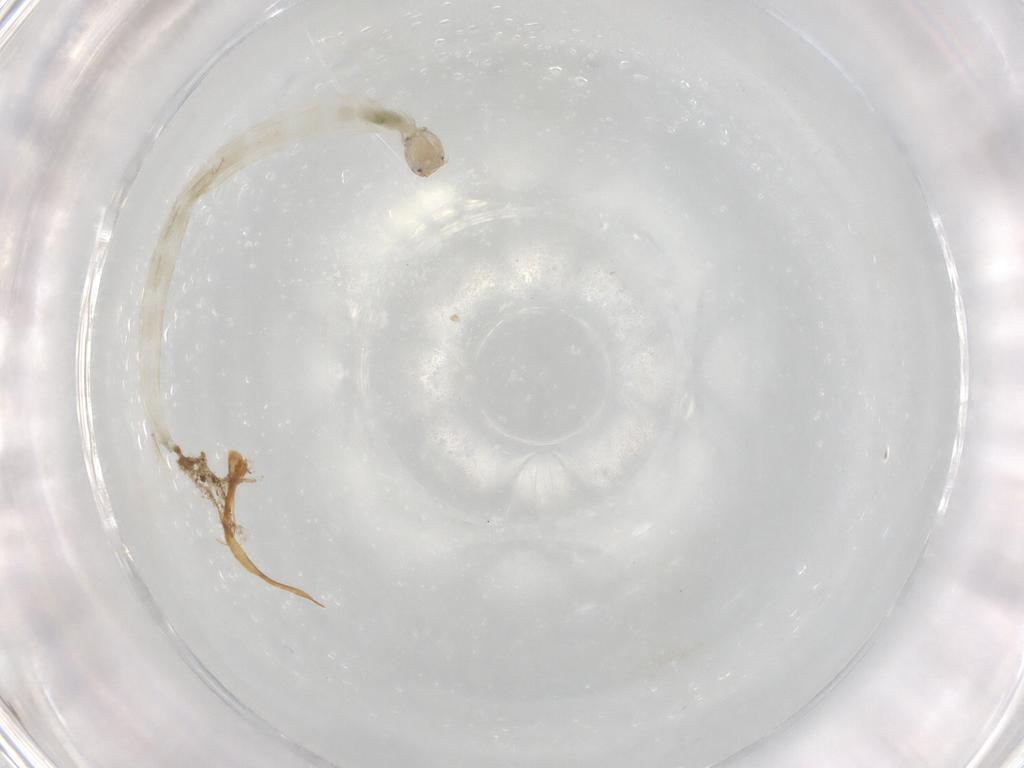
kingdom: Animalia
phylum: Arthropoda
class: Insecta
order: Diptera
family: Chironomidae
